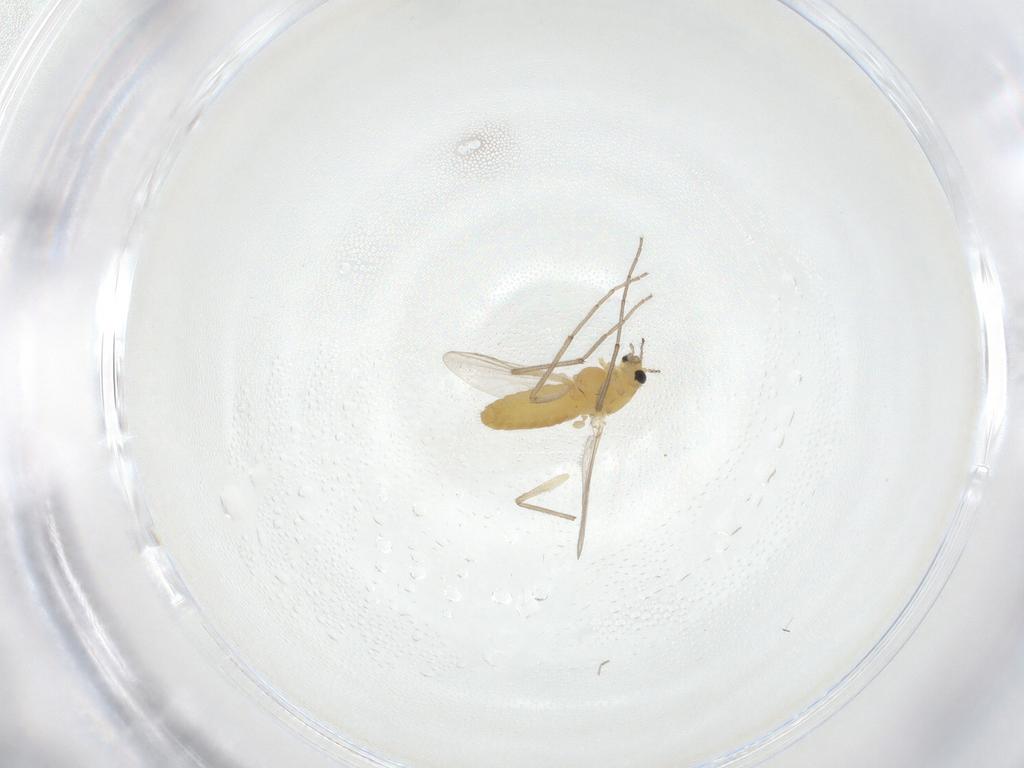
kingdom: Animalia
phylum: Arthropoda
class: Insecta
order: Diptera
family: Chironomidae
